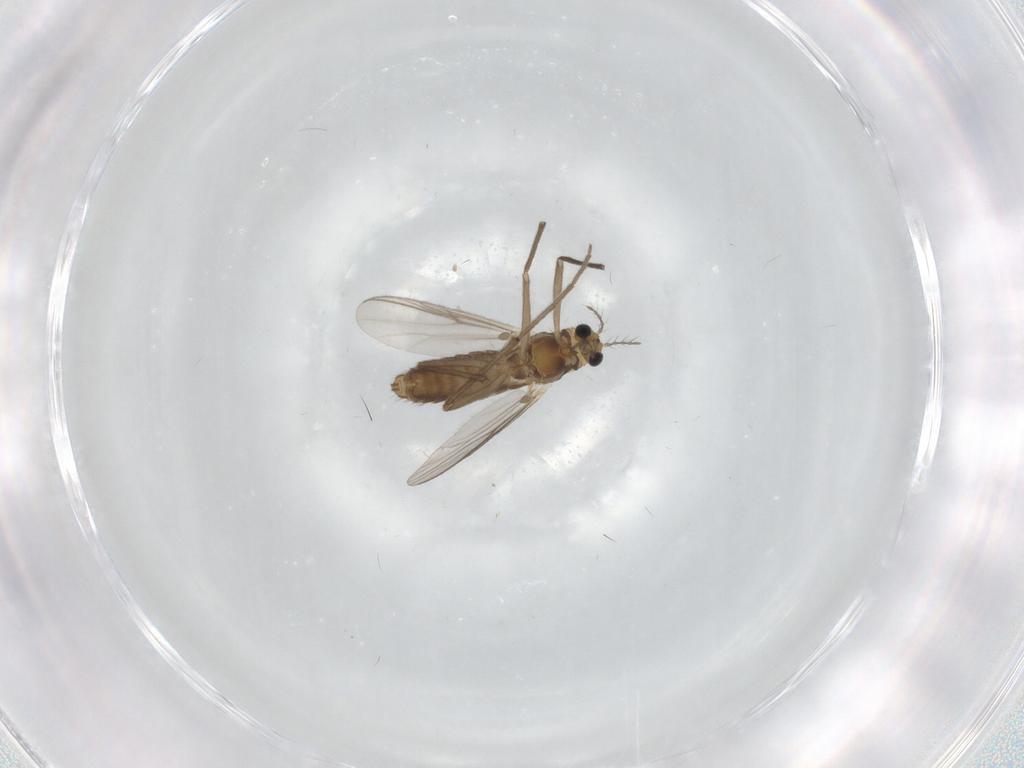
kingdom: Animalia
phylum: Arthropoda
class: Insecta
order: Diptera
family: Chironomidae
